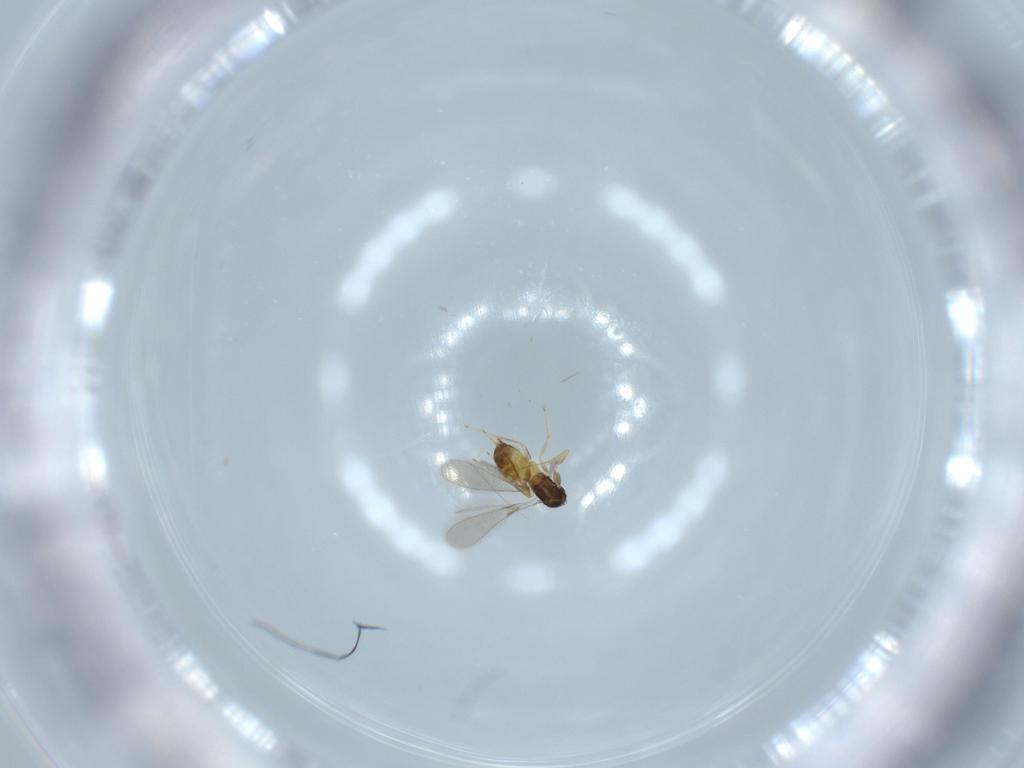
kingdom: Animalia
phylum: Arthropoda
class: Insecta
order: Hymenoptera
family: Mymaridae
